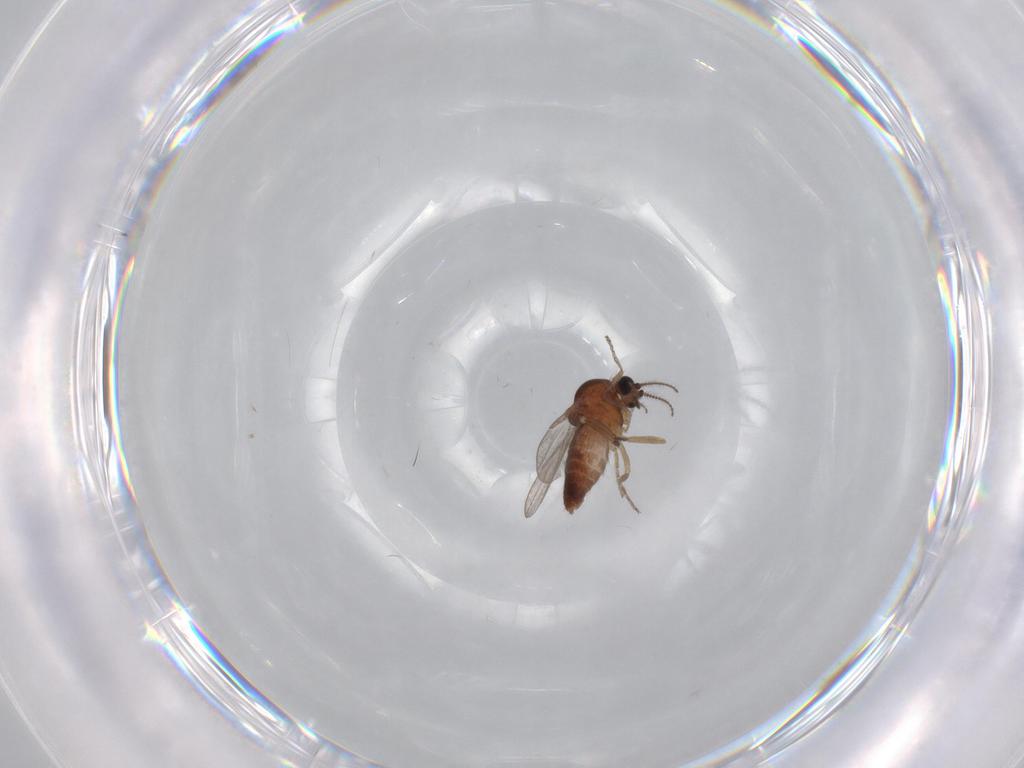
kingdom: Animalia
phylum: Arthropoda
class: Insecta
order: Diptera
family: Ceratopogonidae
